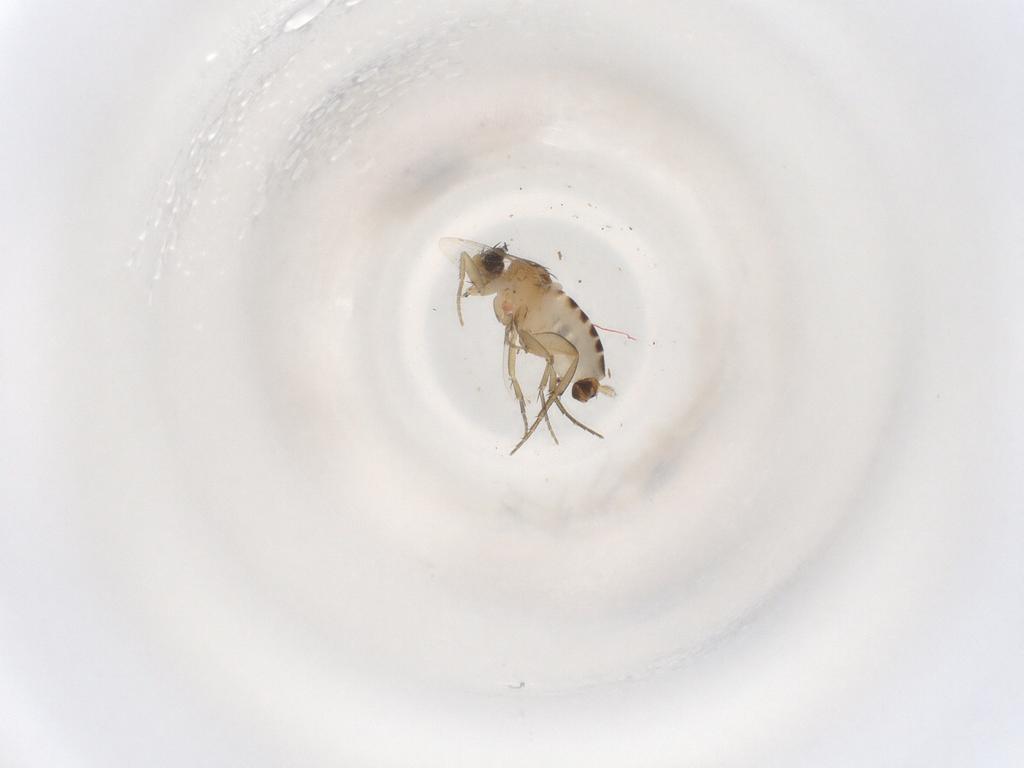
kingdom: Animalia
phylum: Arthropoda
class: Insecta
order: Diptera
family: Phoridae
